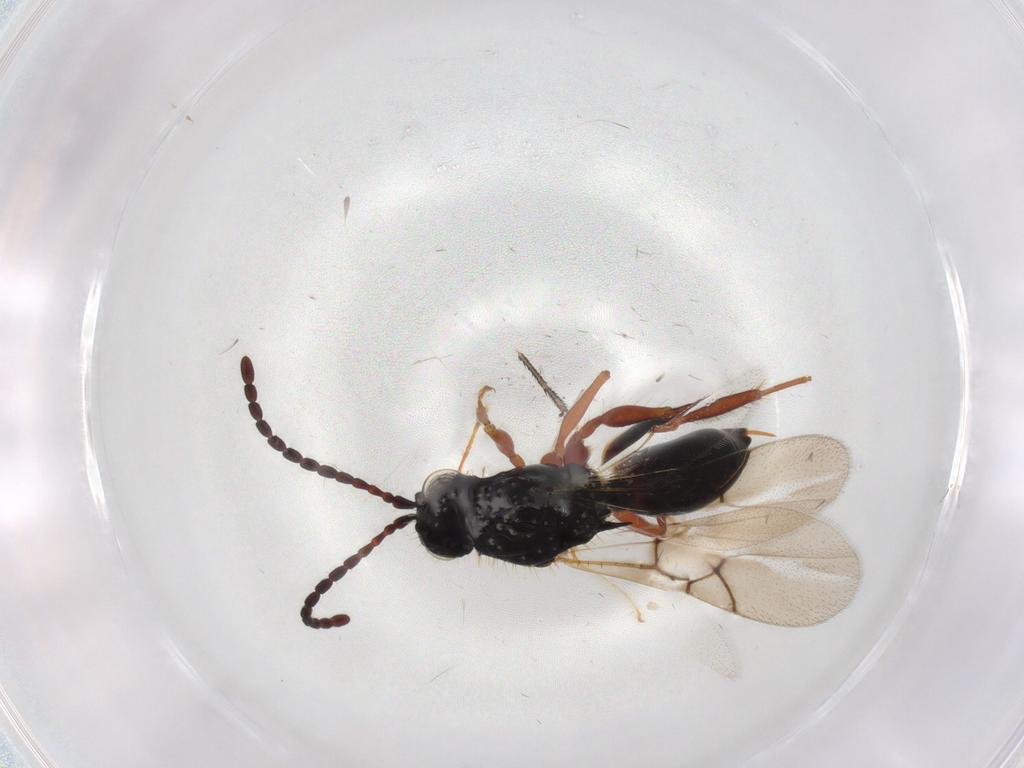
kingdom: Animalia
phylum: Arthropoda
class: Insecta
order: Hymenoptera
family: Figitidae
